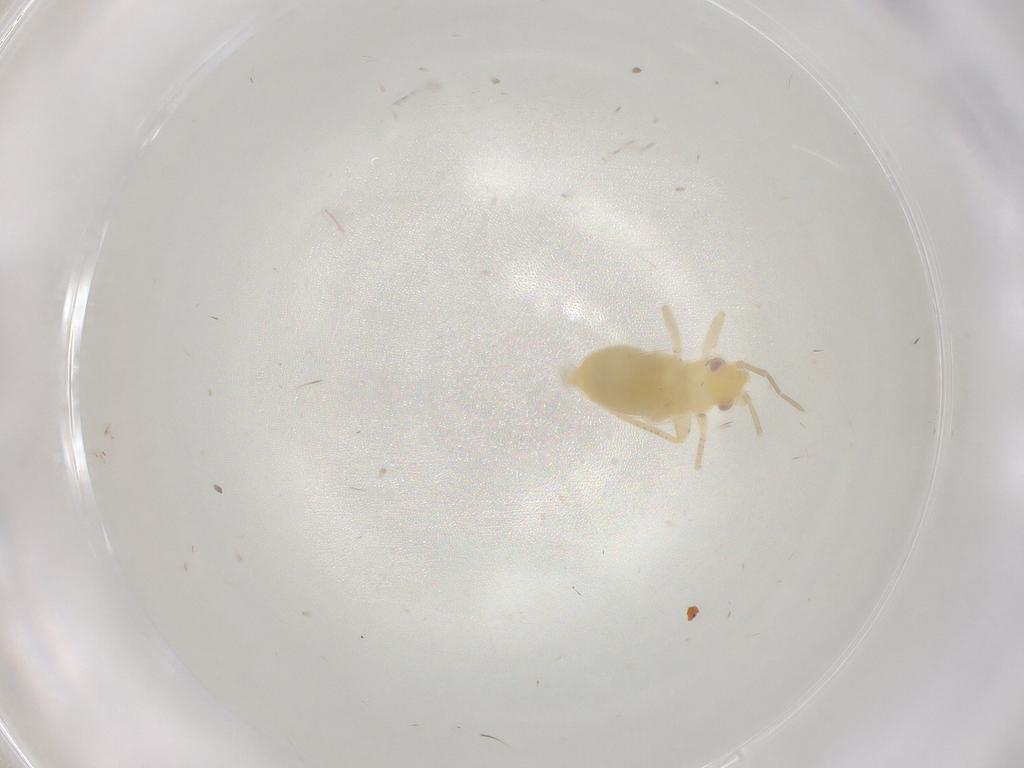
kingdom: Animalia
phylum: Arthropoda
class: Insecta
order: Hemiptera
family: Miridae
